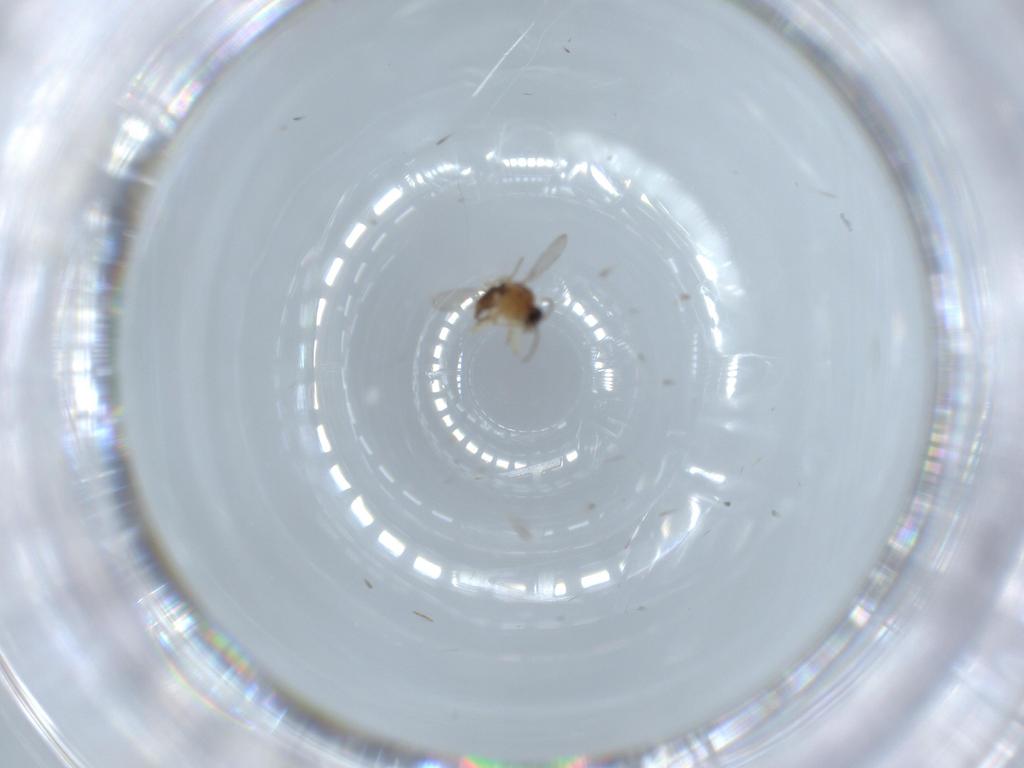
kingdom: Animalia
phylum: Arthropoda
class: Insecta
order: Diptera
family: Ceratopogonidae
